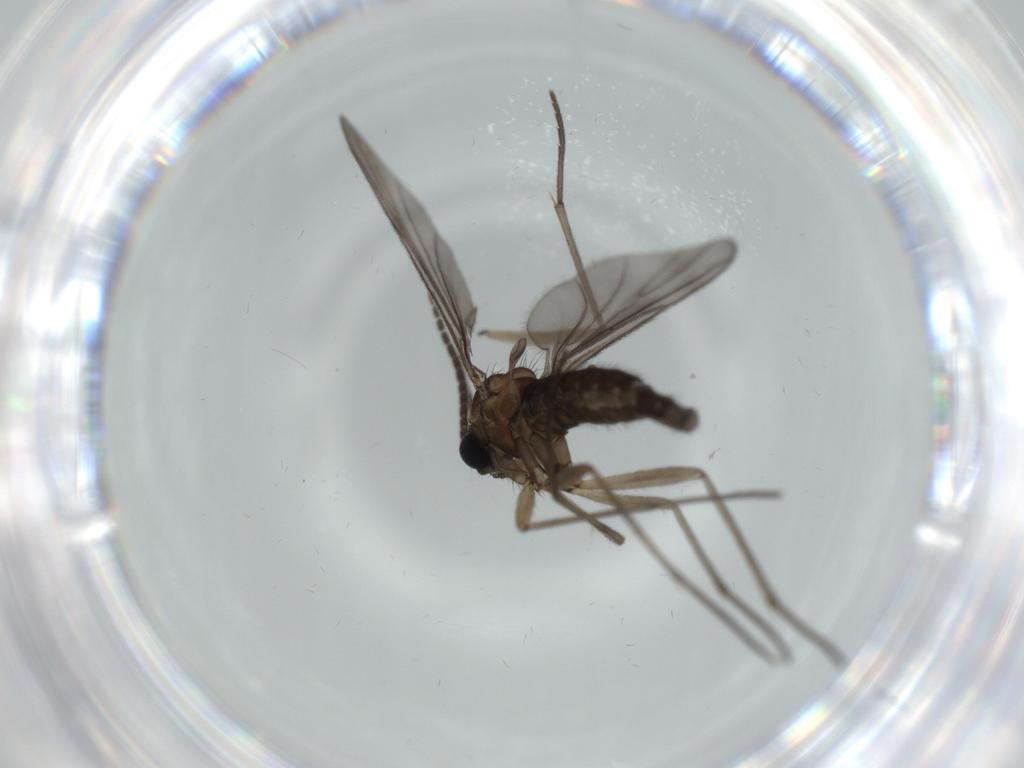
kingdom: Animalia
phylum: Arthropoda
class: Insecta
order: Diptera
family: Sciaridae
